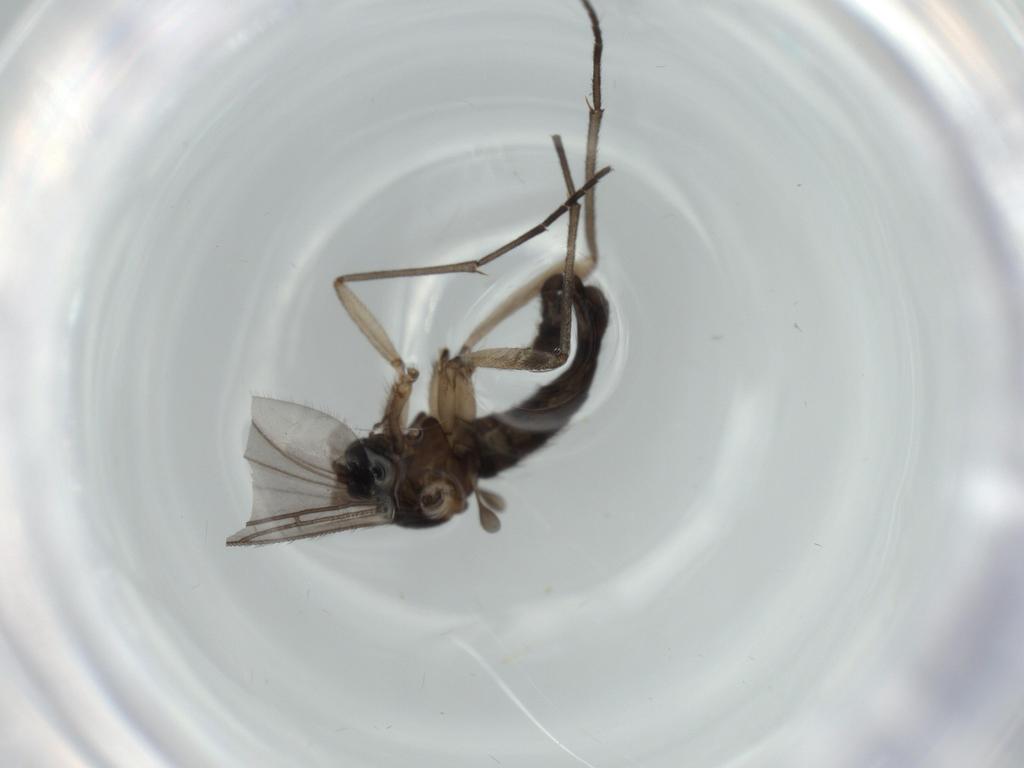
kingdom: Animalia
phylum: Arthropoda
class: Insecta
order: Diptera
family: Sciaridae
